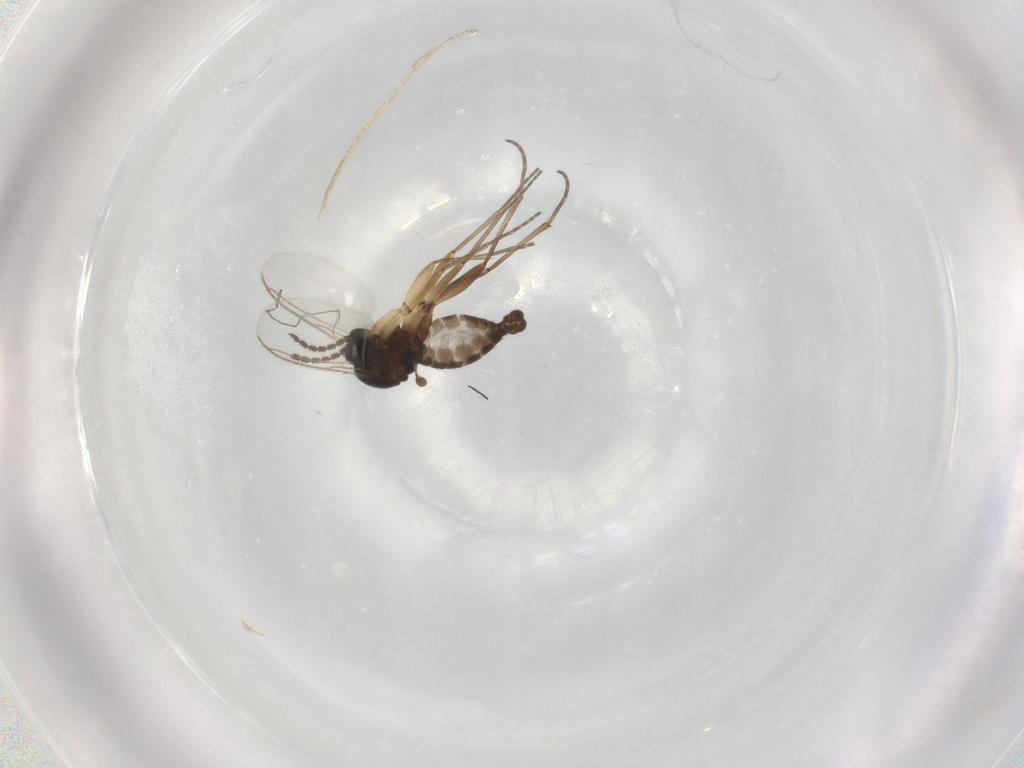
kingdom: Animalia
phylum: Arthropoda
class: Insecta
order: Diptera
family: Sciaridae
